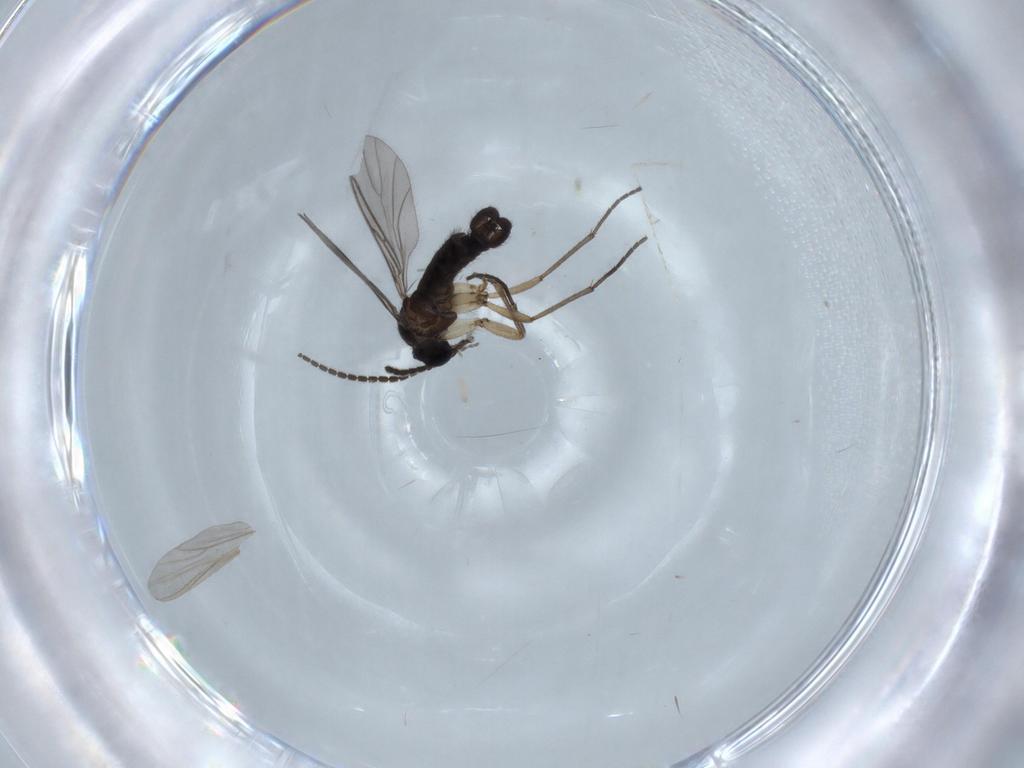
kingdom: Animalia
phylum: Arthropoda
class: Insecta
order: Diptera
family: Sciaridae
